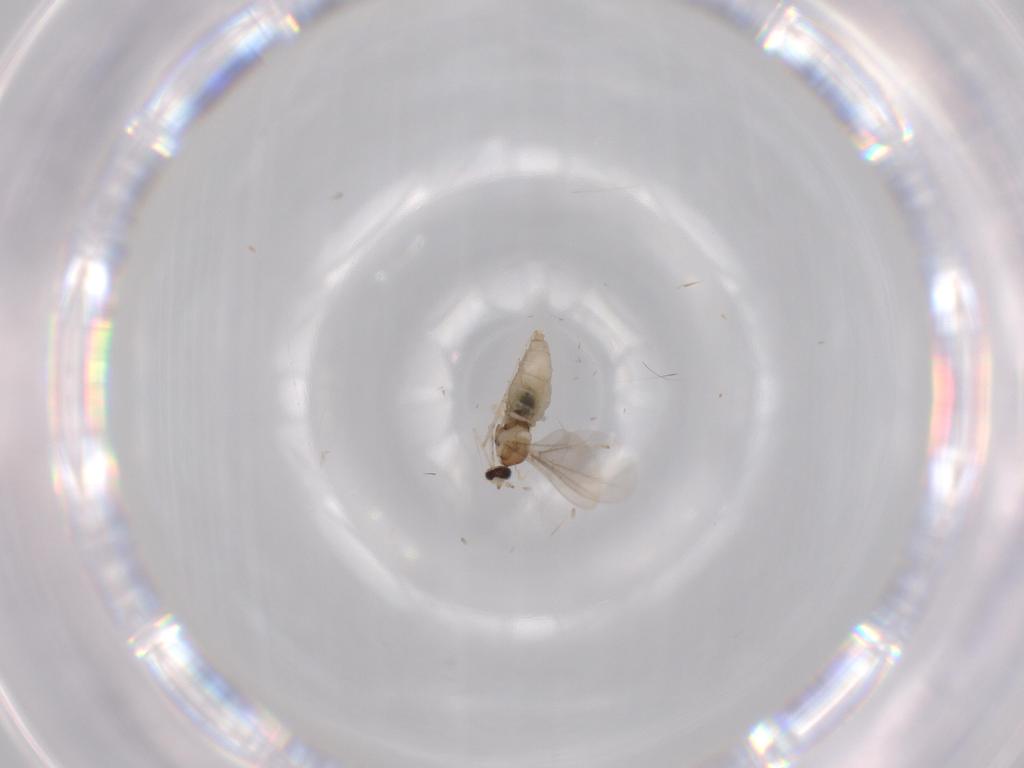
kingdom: Animalia
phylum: Arthropoda
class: Insecta
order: Diptera
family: Cecidomyiidae
